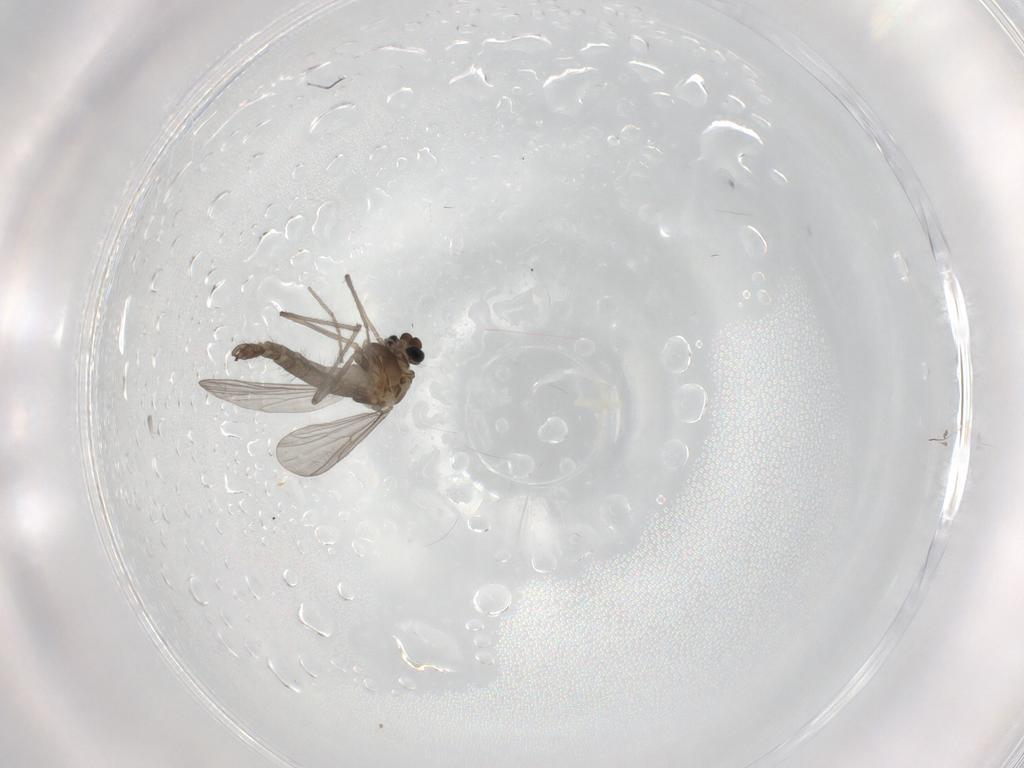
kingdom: Animalia
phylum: Arthropoda
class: Insecta
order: Diptera
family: Chironomidae
